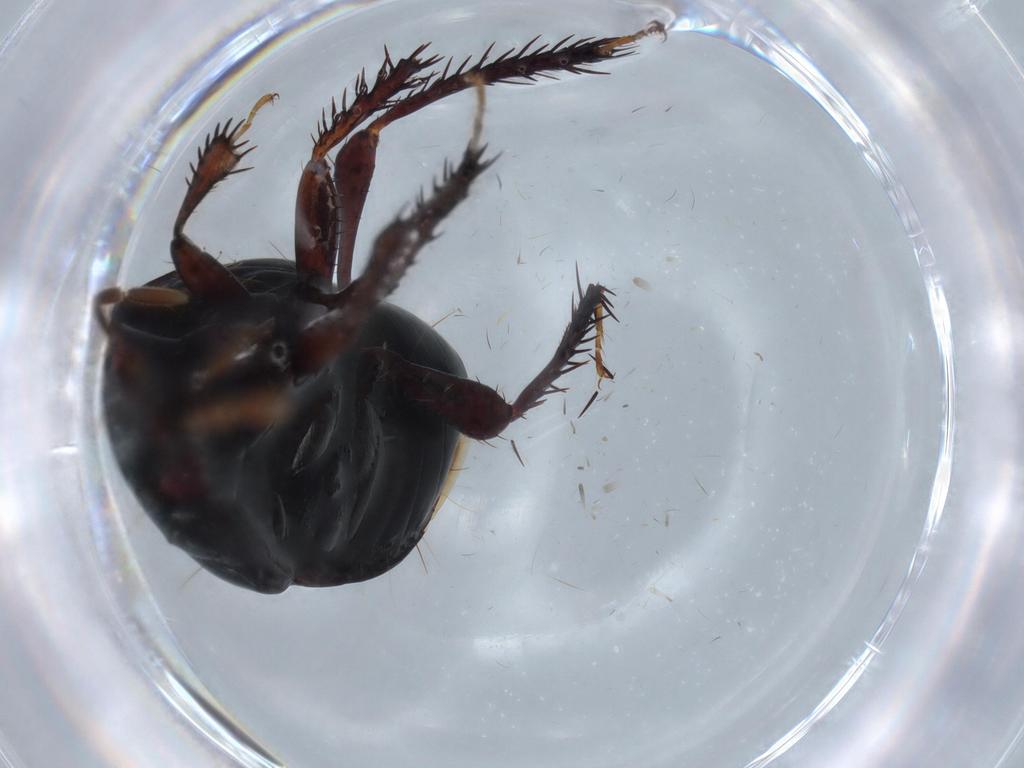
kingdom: Animalia
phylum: Arthropoda
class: Insecta
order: Hemiptera
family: Cydnidae
